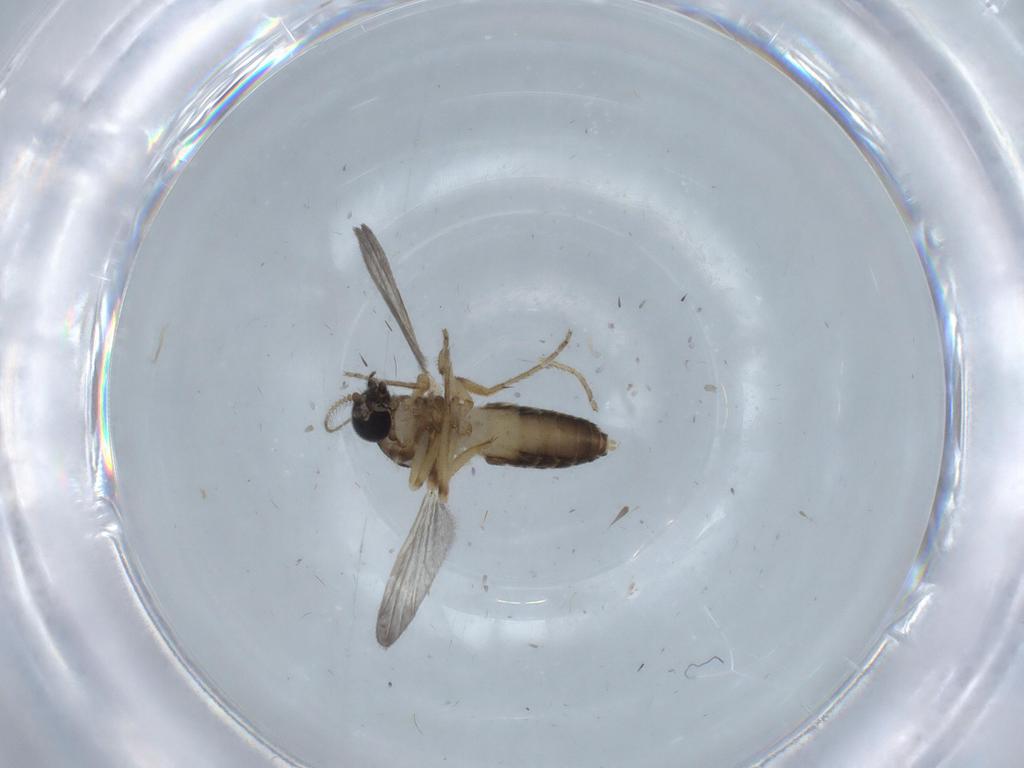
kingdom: Animalia
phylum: Arthropoda
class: Insecta
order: Diptera
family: Ceratopogonidae
